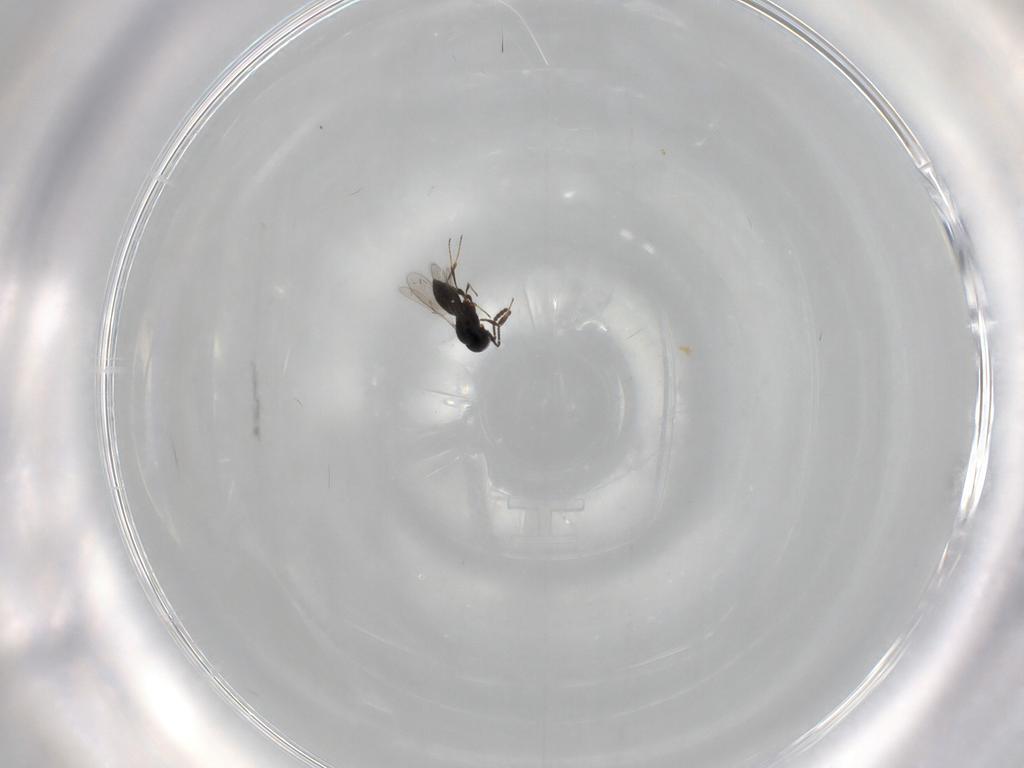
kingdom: Animalia
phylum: Arthropoda
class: Insecta
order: Hymenoptera
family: Scelionidae
